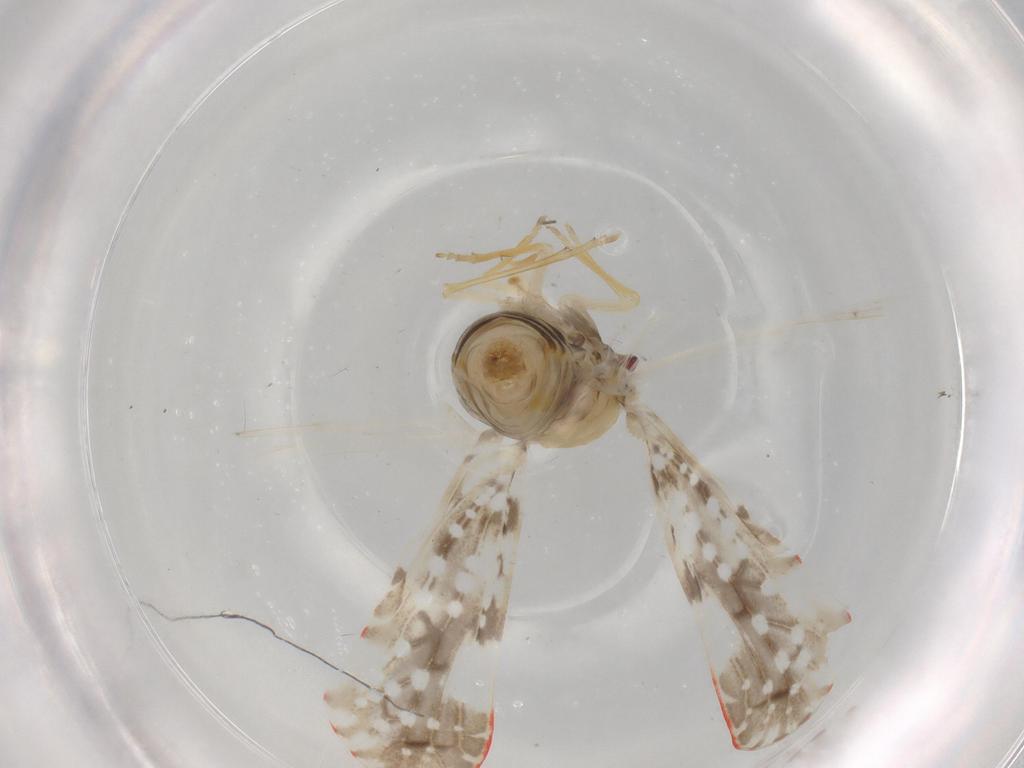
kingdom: Animalia
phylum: Arthropoda
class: Insecta
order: Hemiptera
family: Derbidae
